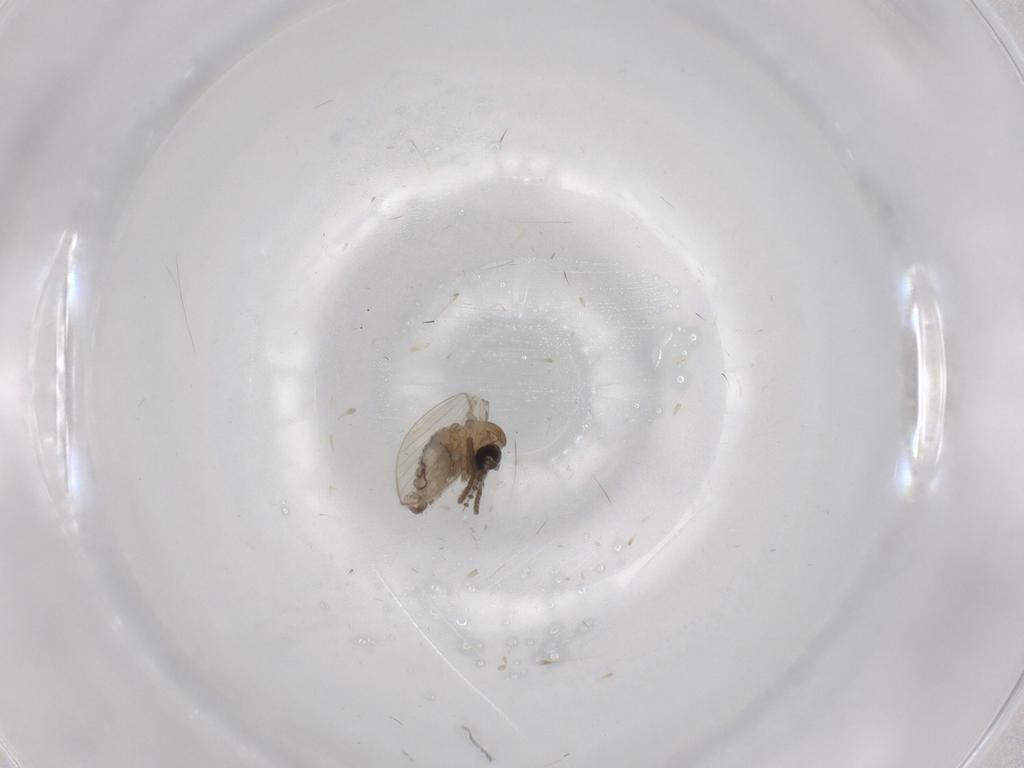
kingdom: Animalia
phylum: Arthropoda
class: Insecta
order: Diptera
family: Psychodidae
